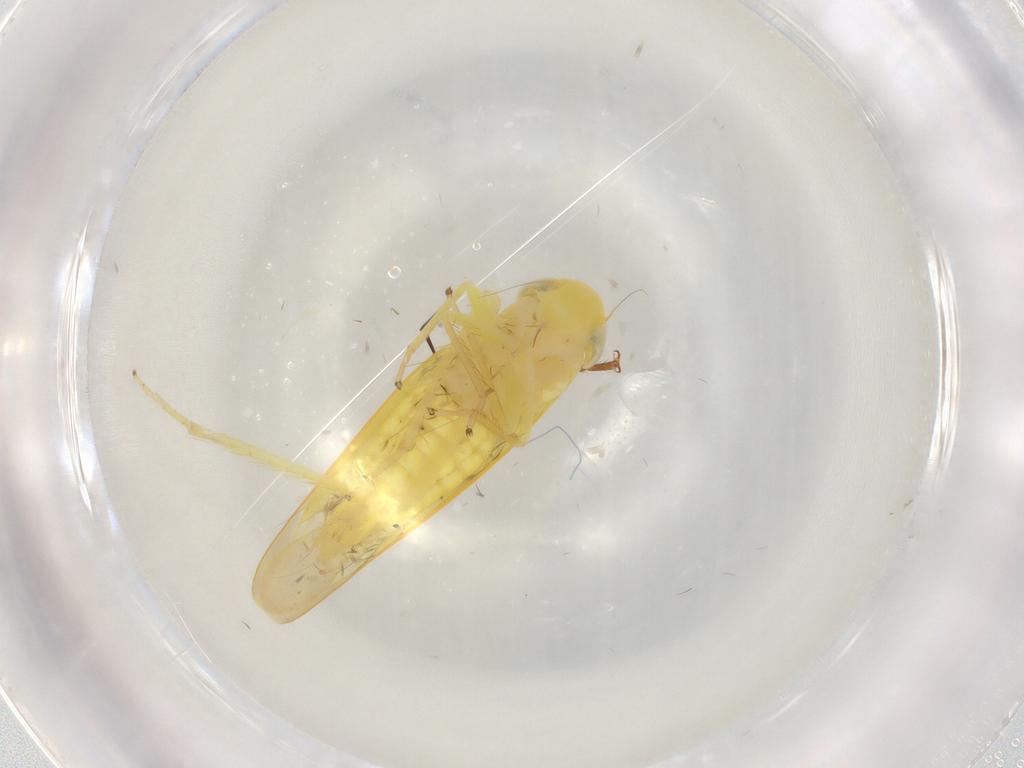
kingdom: Animalia
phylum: Arthropoda
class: Insecta
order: Hemiptera
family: Cydnidae
